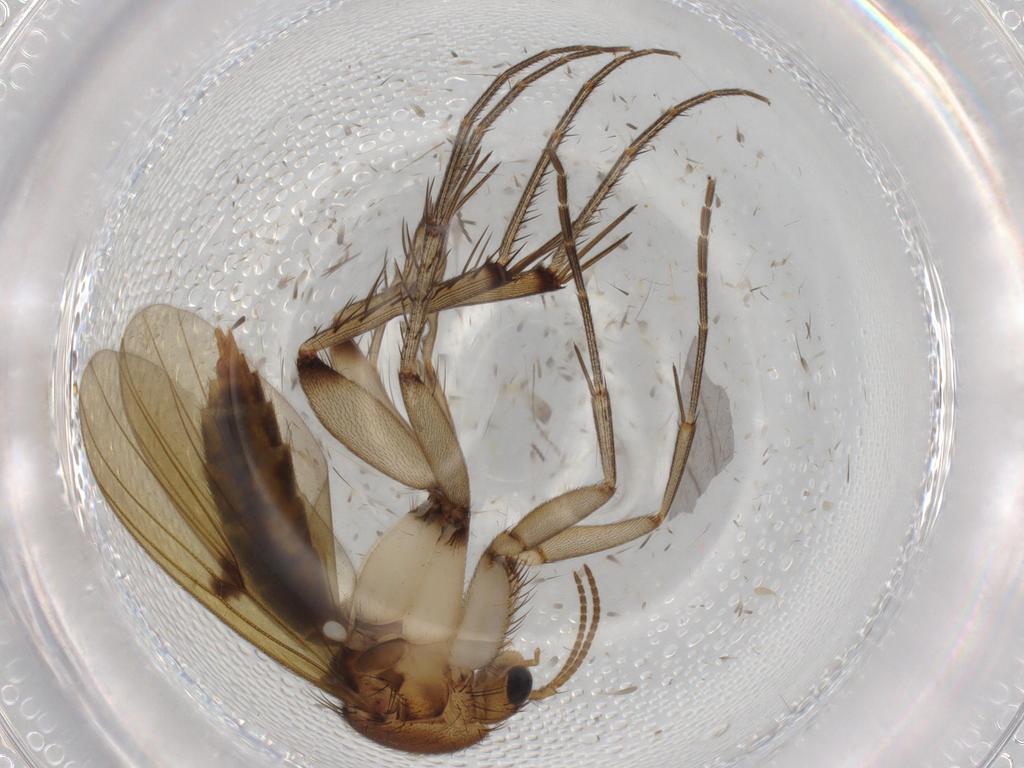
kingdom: Animalia
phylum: Arthropoda
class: Insecta
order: Diptera
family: Mycetophilidae
